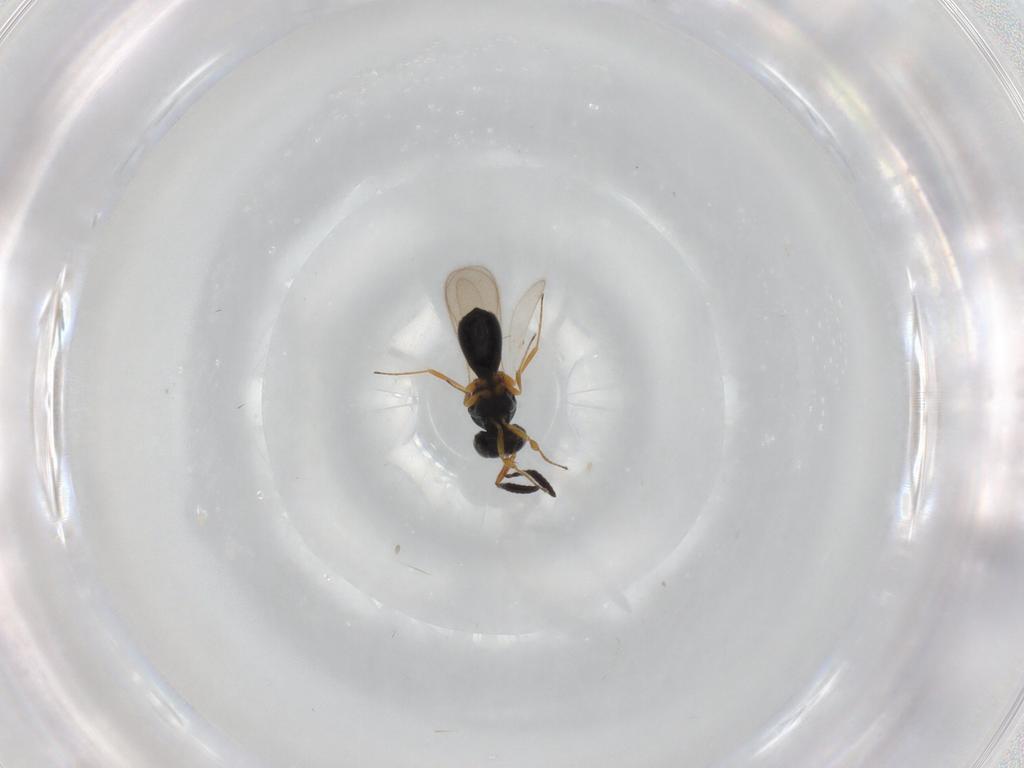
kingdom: Animalia
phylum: Arthropoda
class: Insecta
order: Hymenoptera
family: Scelionidae
